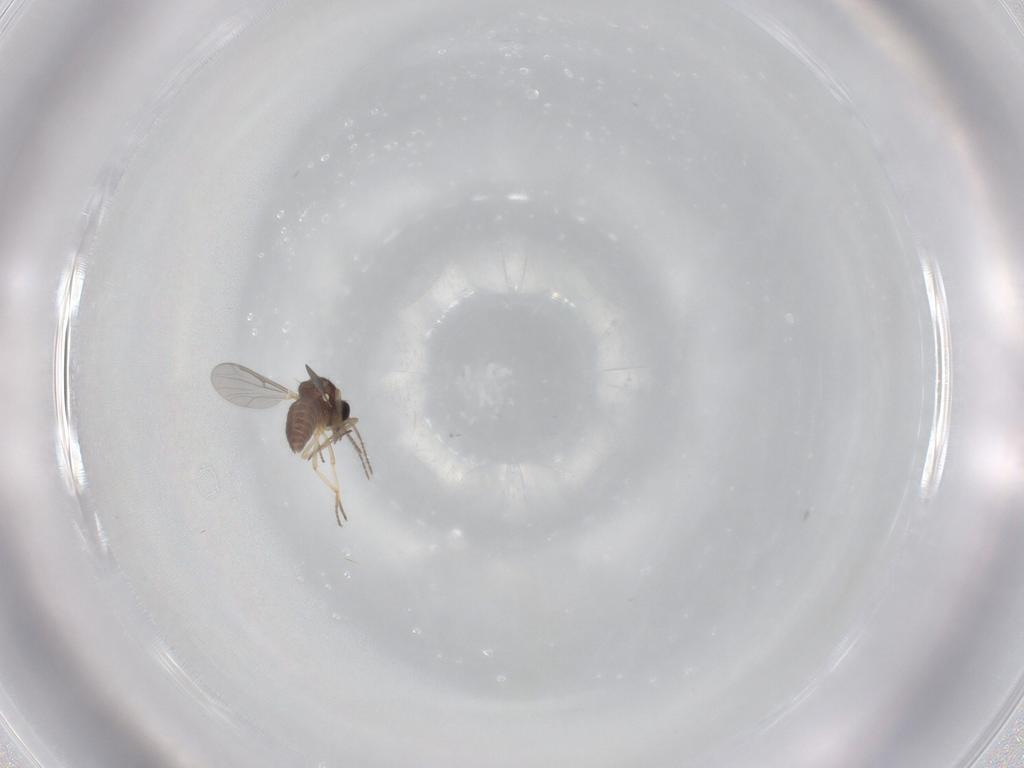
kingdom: Animalia
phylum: Arthropoda
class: Insecta
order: Diptera
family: Ceratopogonidae
